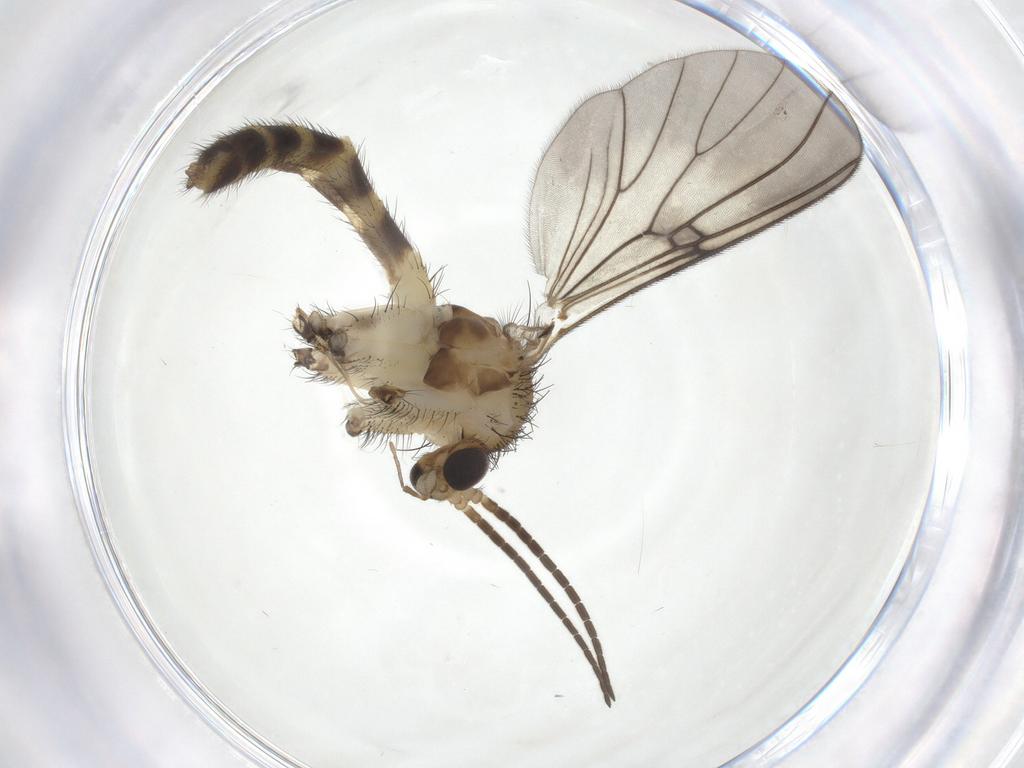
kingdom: Animalia
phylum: Arthropoda
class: Insecta
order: Diptera
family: Mycetophilidae
